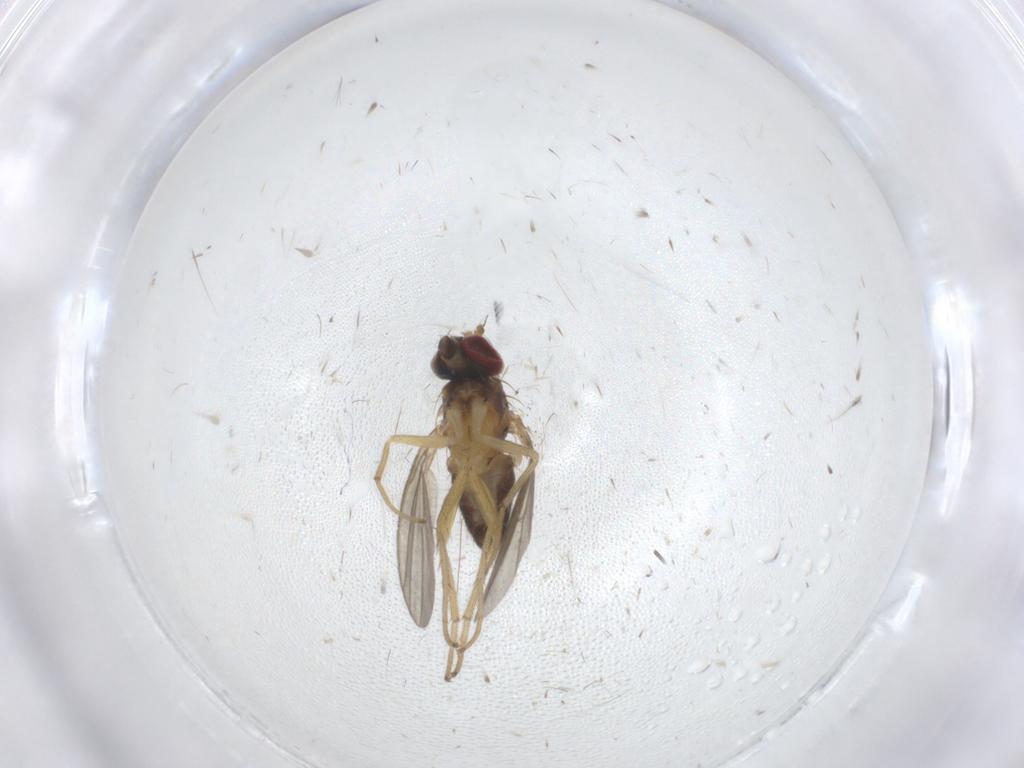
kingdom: Animalia
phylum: Arthropoda
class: Insecta
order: Diptera
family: Dolichopodidae
